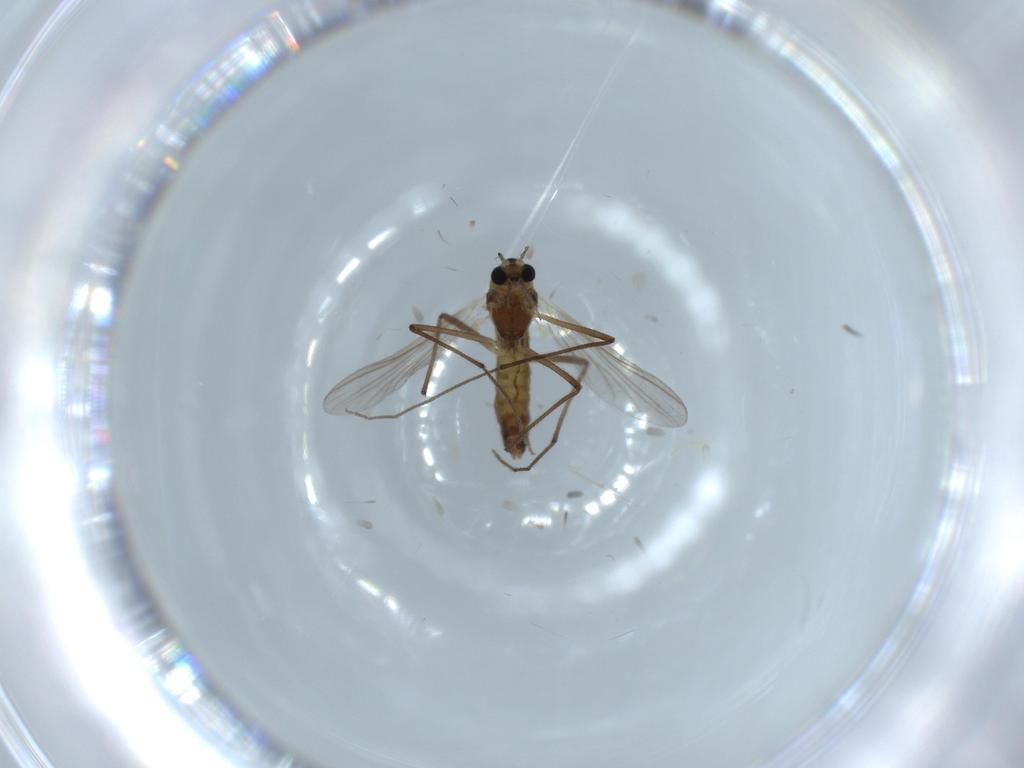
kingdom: Animalia
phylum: Arthropoda
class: Insecta
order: Diptera
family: Chironomidae
